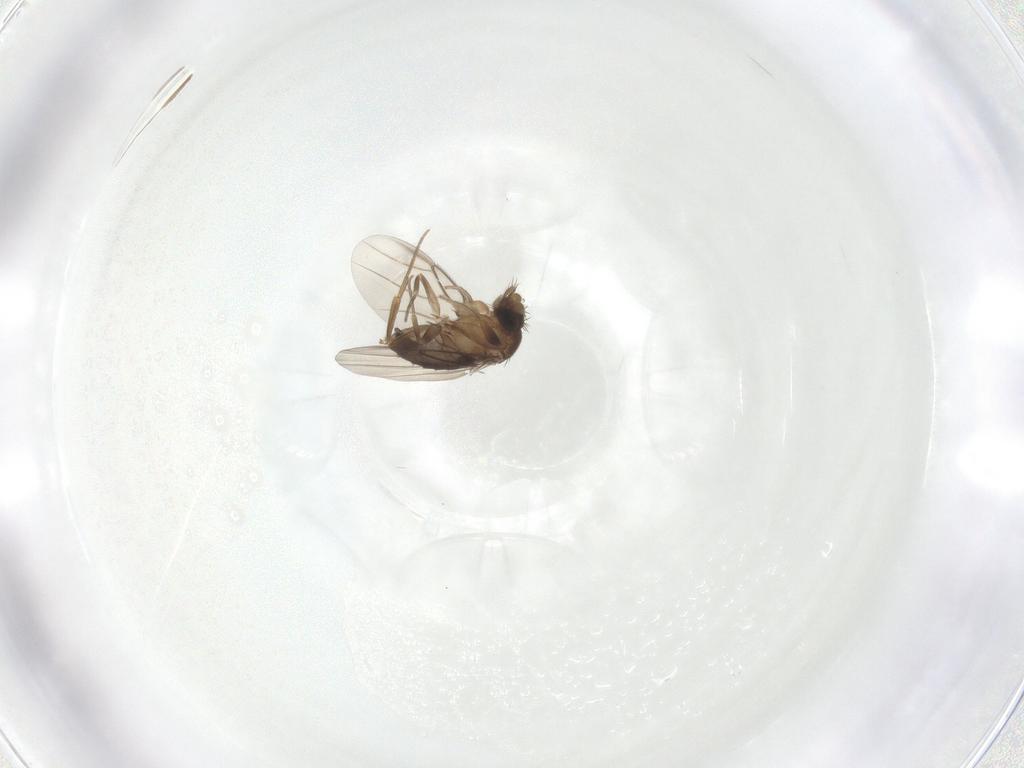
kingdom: Animalia
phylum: Arthropoda
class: Insecta
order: Diptera
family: Phoridae
